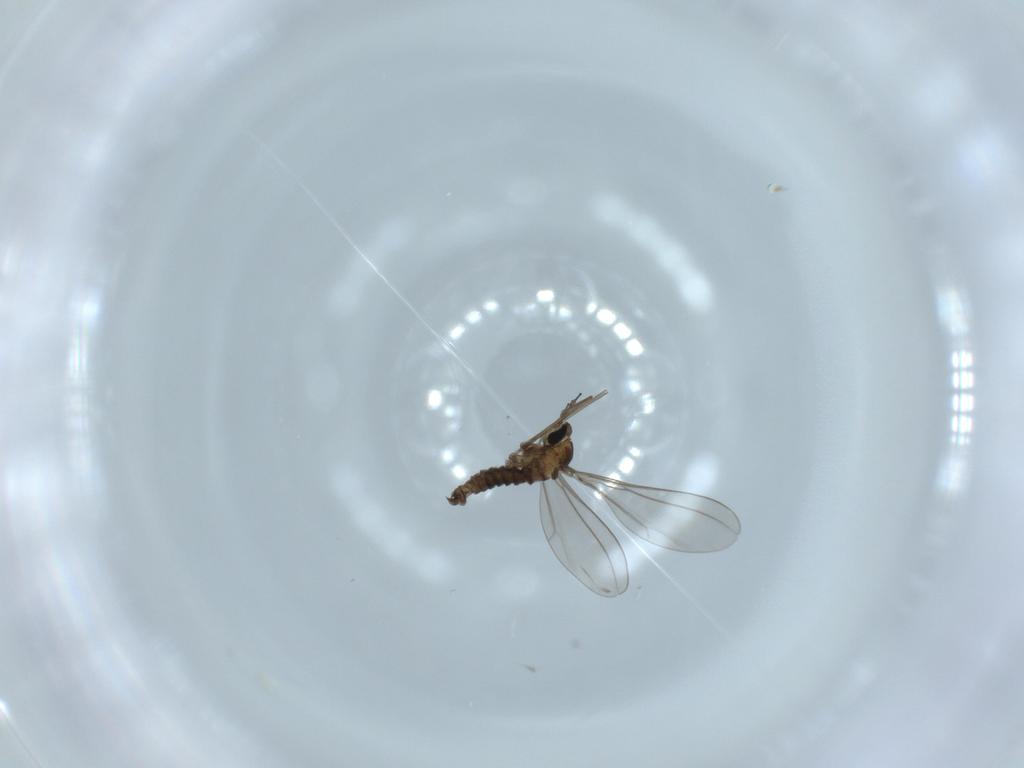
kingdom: Animalia
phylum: Arthropoda
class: Insecta
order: Diptera
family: Cecidomyiidae
